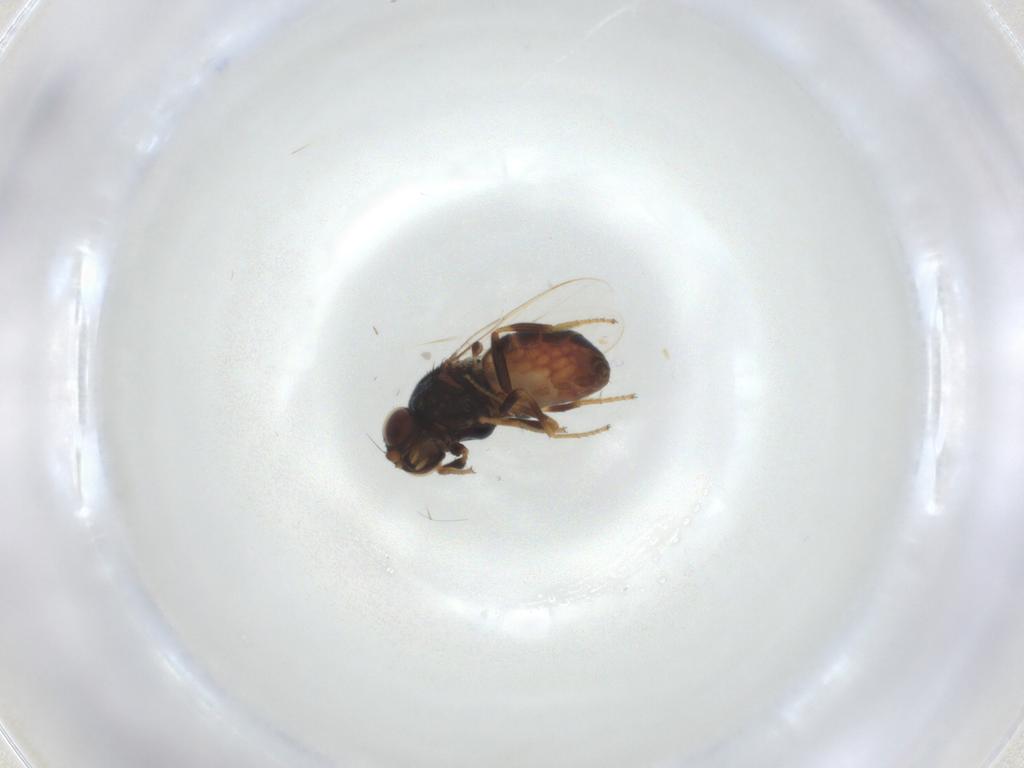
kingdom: Animalia
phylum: Arthropoda
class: Insecta
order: Diptera
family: Chloropidae
